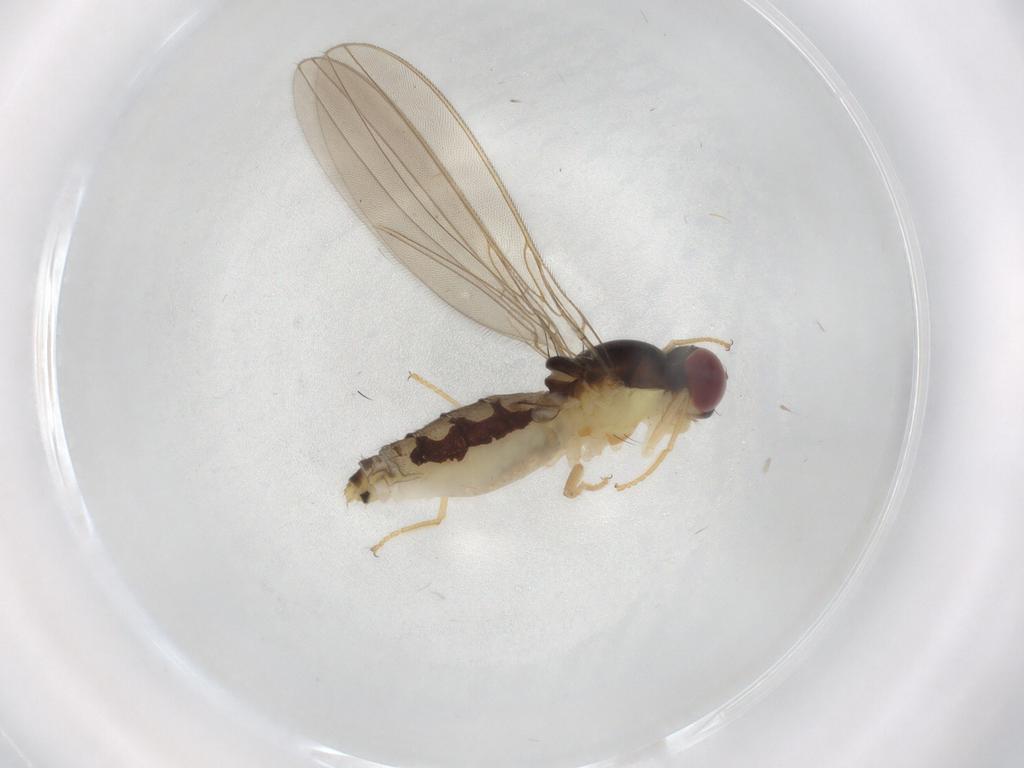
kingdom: Animalia
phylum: Arthropoda
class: Insecta
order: Diptera
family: Asteiidae
